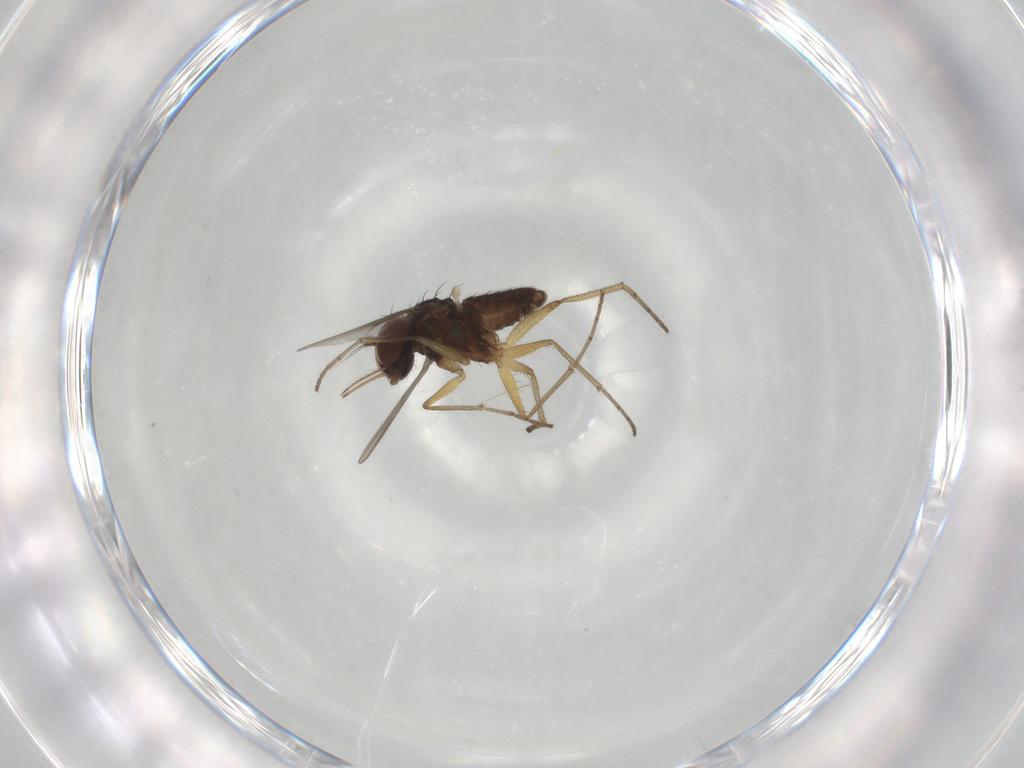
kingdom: Animalia
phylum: Arthropoda
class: Insecta
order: Diptera
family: Dolichopodidae
